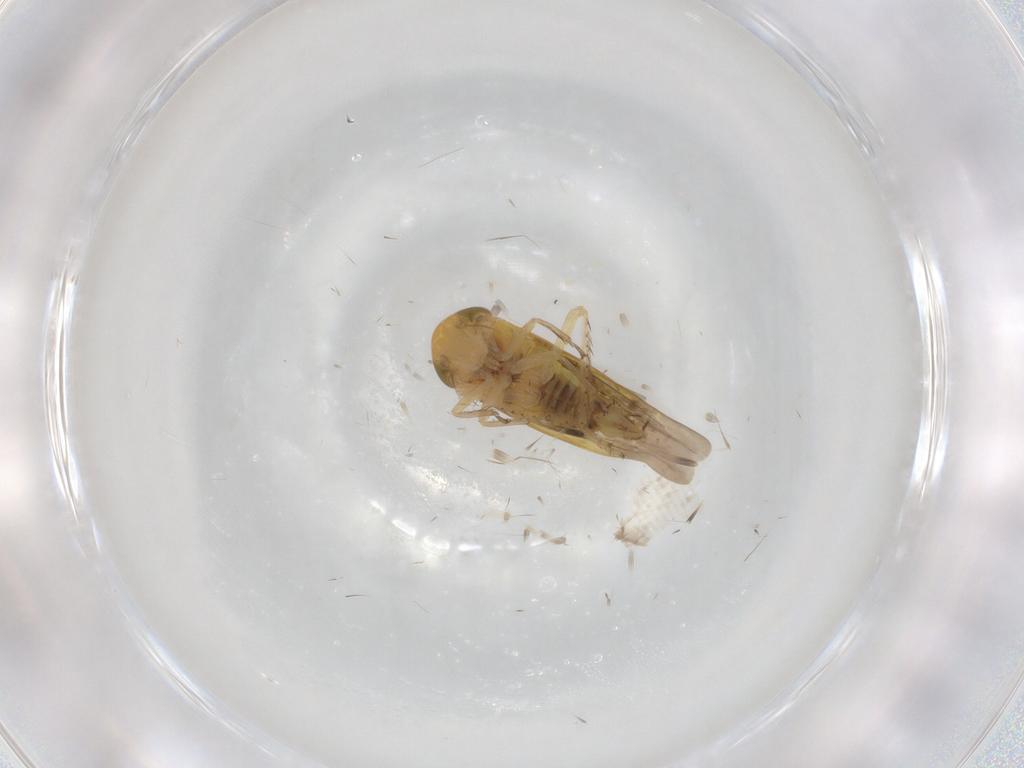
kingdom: Animalia
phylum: Arthropoda
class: Insecta
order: Hemiptera
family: Cicadellidae
